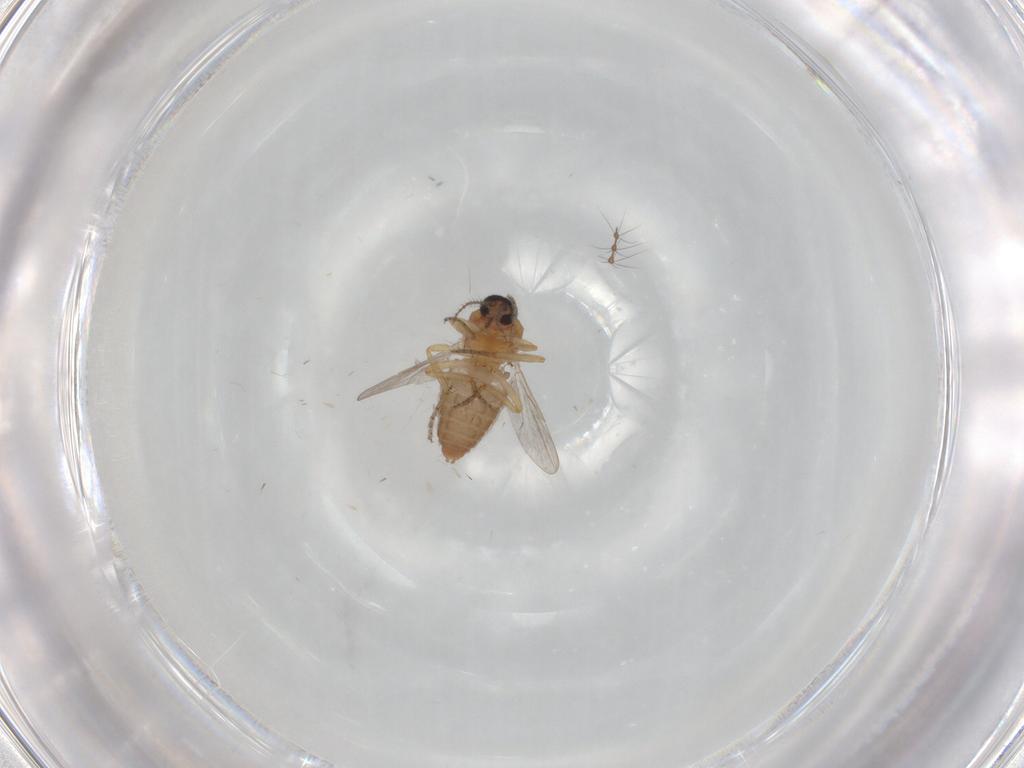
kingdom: Animalia
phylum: Arthropoda
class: Insecta
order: Diptera
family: Ceratopogonidae
